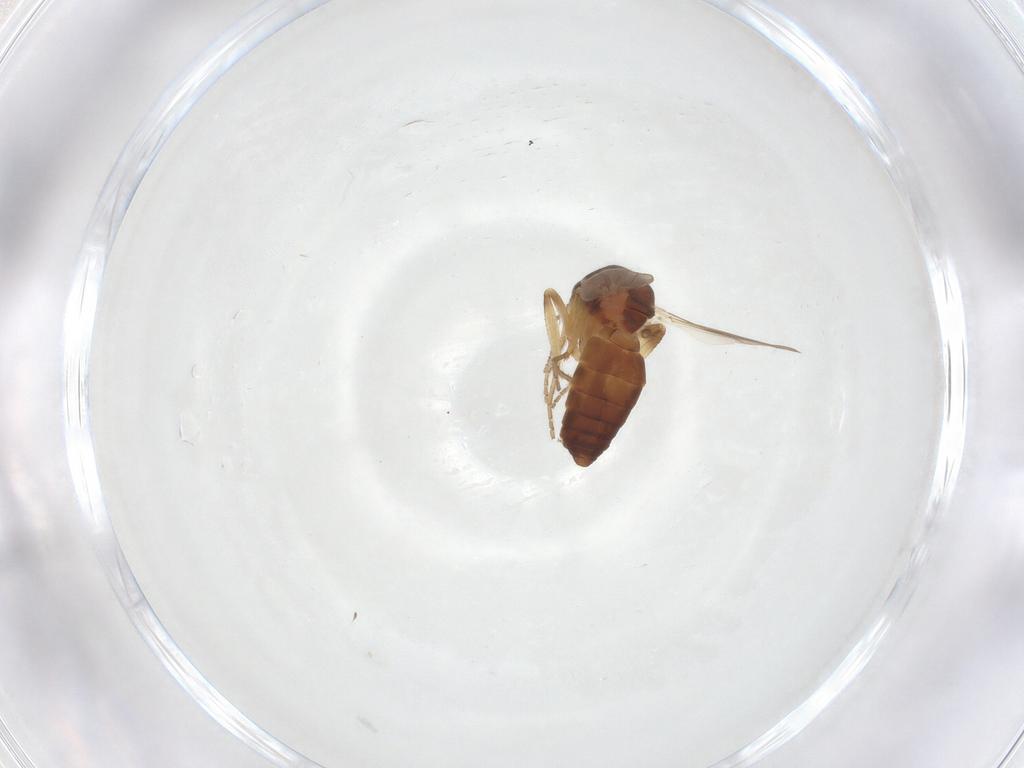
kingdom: Animalia
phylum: Arthropoda
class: Insecta
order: Diptera
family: Ceratopogonidae
